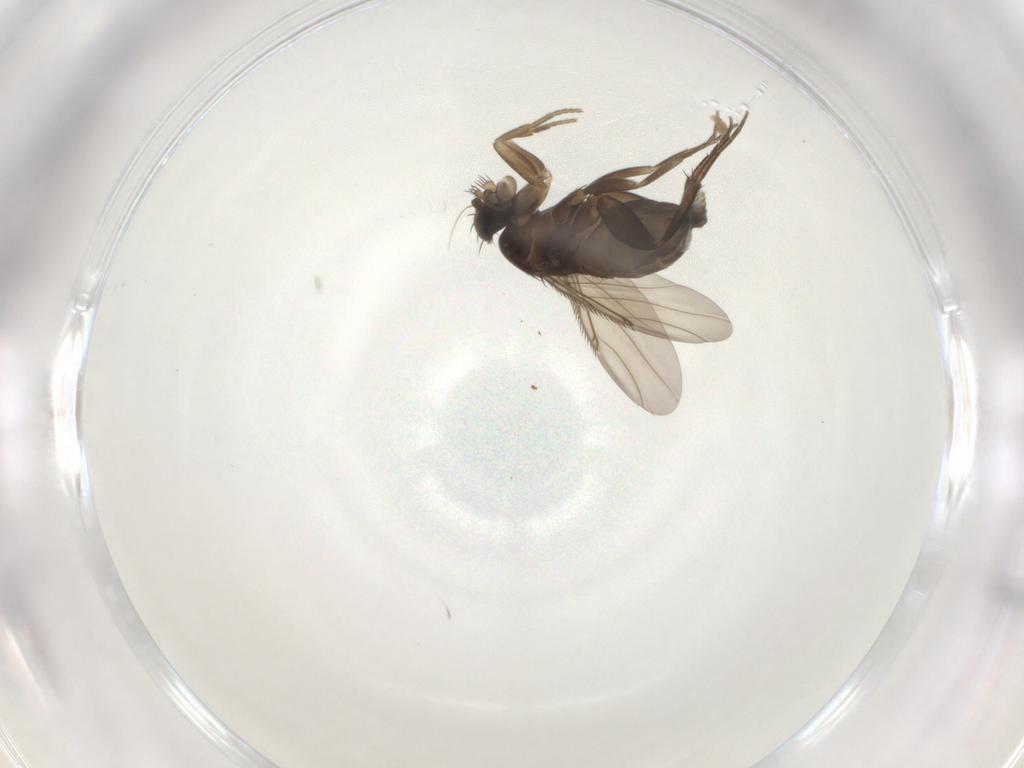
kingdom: Animalia
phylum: Arthropoda
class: Insecta
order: Diptera
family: Phoridae
